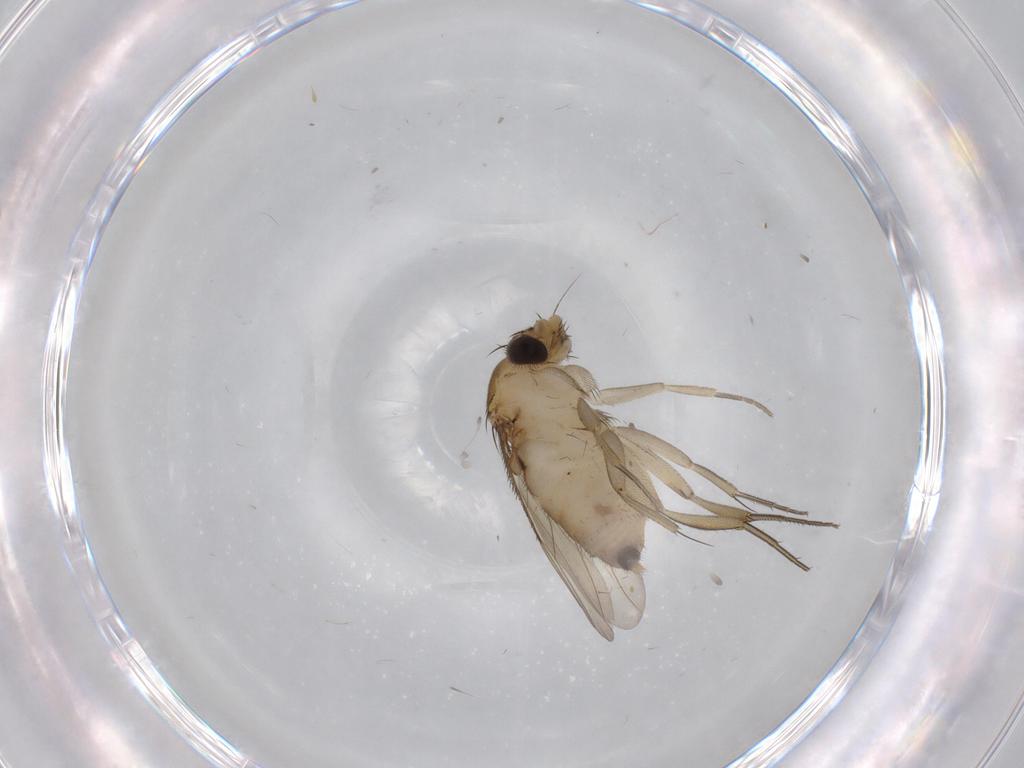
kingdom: Animalia
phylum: Arthropoda
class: Insecta
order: Diptera
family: Phoridae
